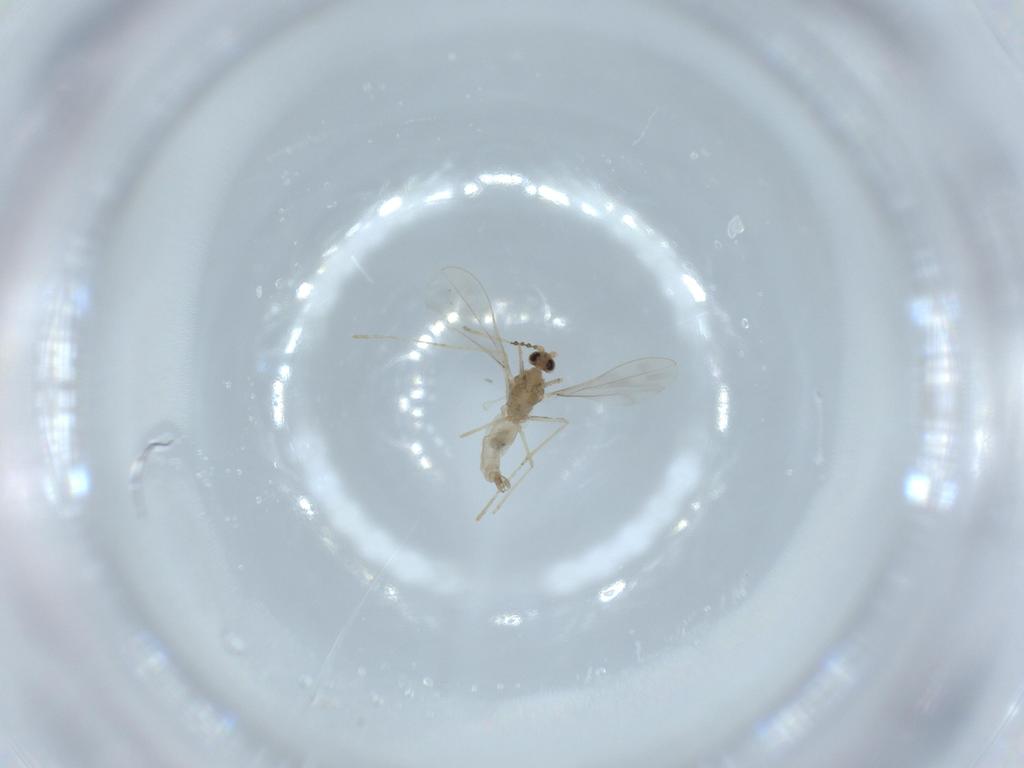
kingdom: Animalia
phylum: Arthropoda
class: Insecta
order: Diptera
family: Cecidomyiidae
